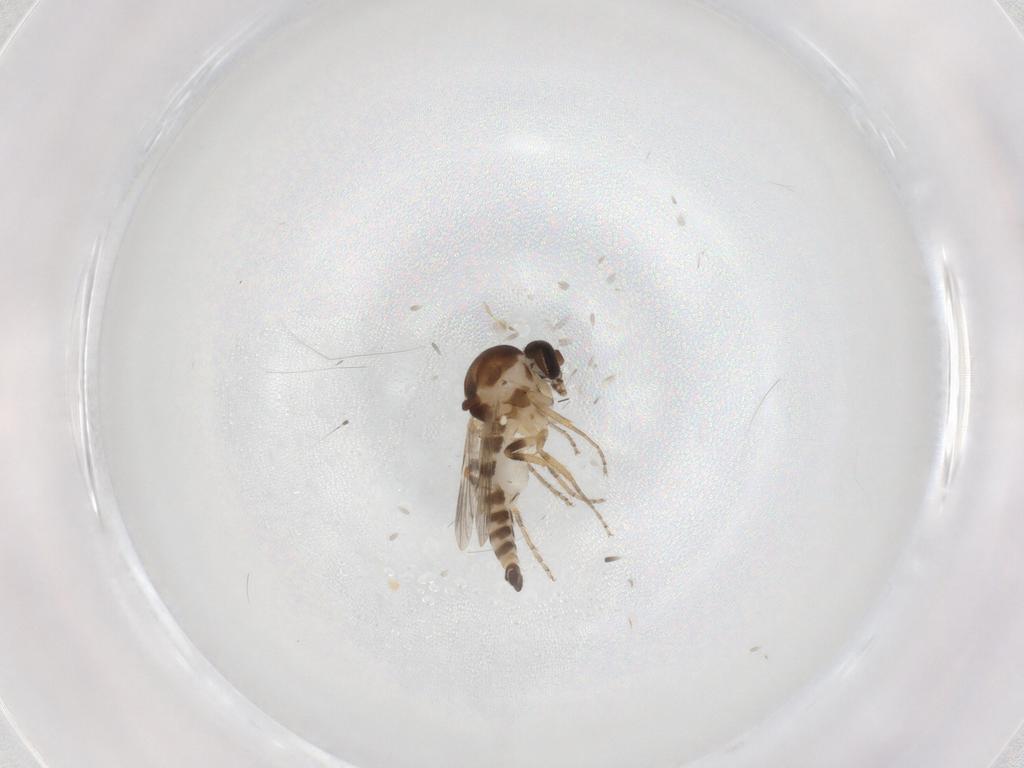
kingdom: Animalia
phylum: Arthropoda
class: Insecta
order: Diptera
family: Ceratopogonidae
